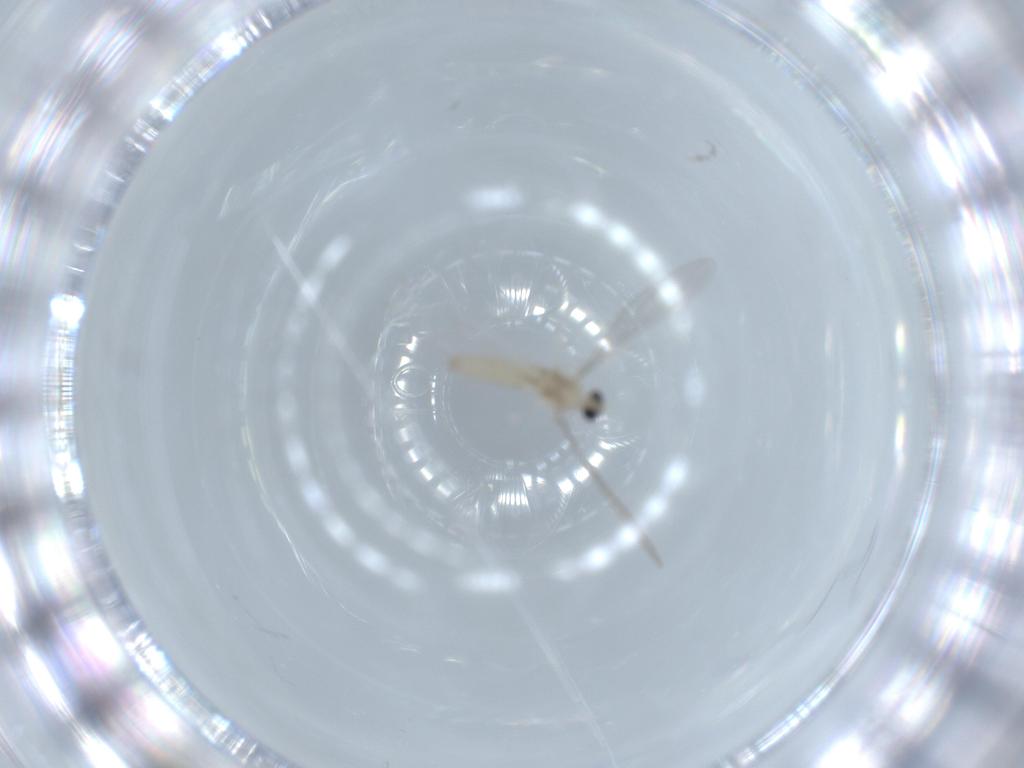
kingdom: Animalia
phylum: Arthropoda
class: Insecta
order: Diptera
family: Cecidomyiidae
